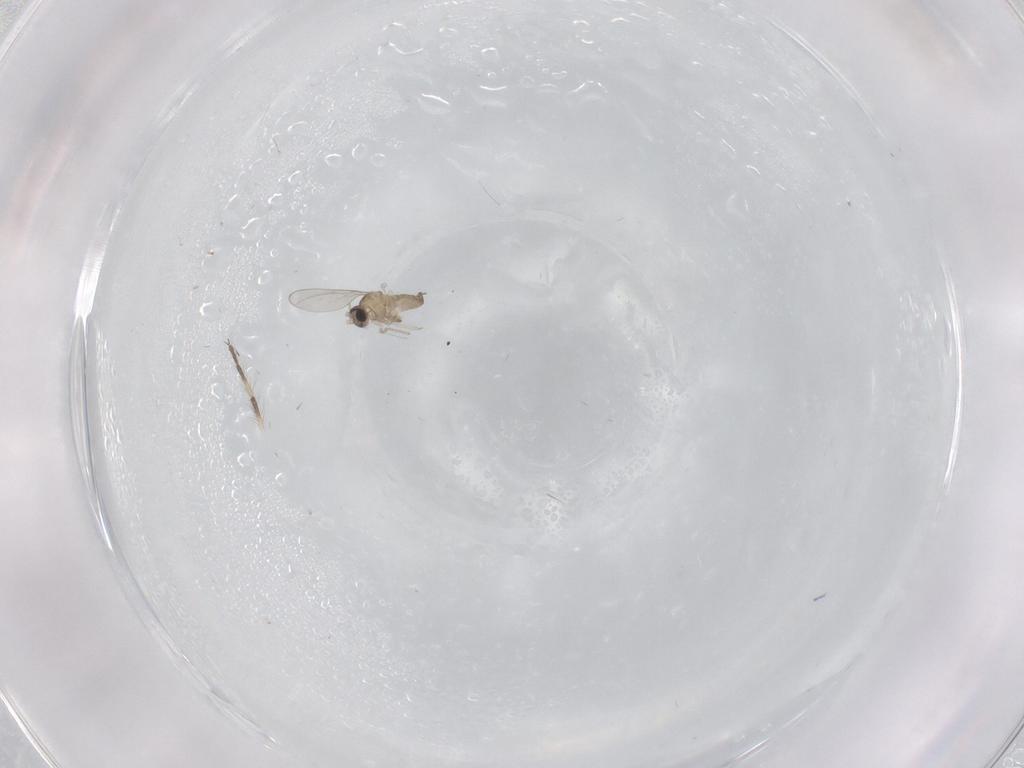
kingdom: Animalia
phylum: Arthropoda
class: Insecta
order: Diptera
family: Cecidomyiidae
